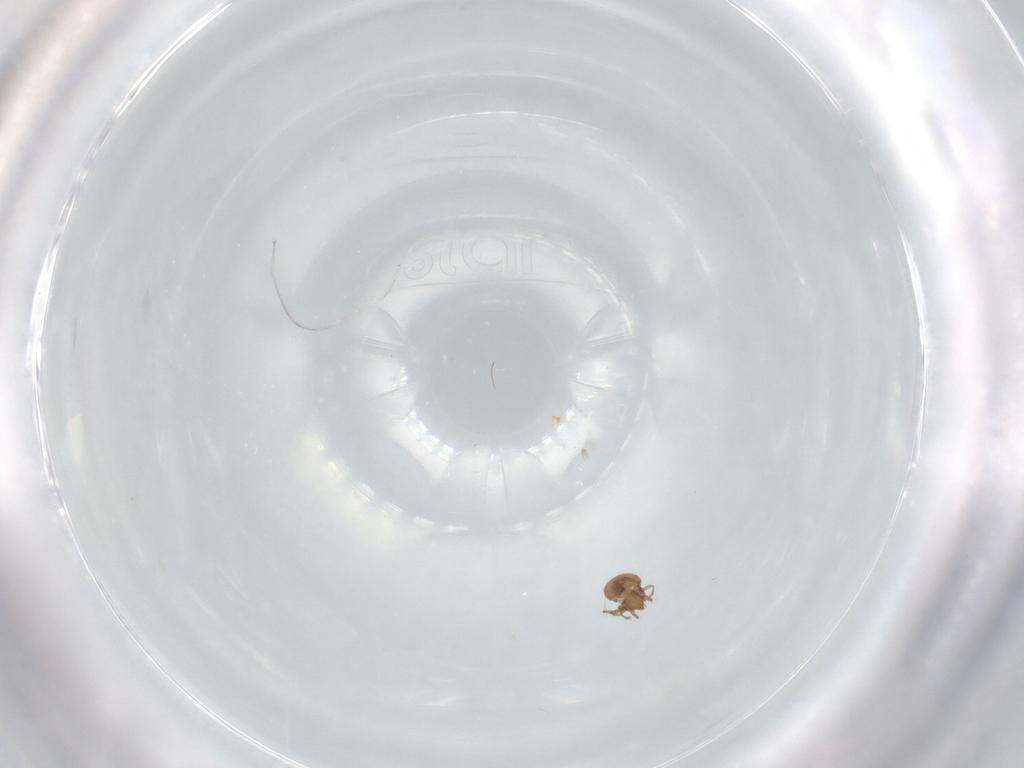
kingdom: Animalia
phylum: Arthropoda
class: Arachnida
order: Sarcoptiformes
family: Oribatulidae
